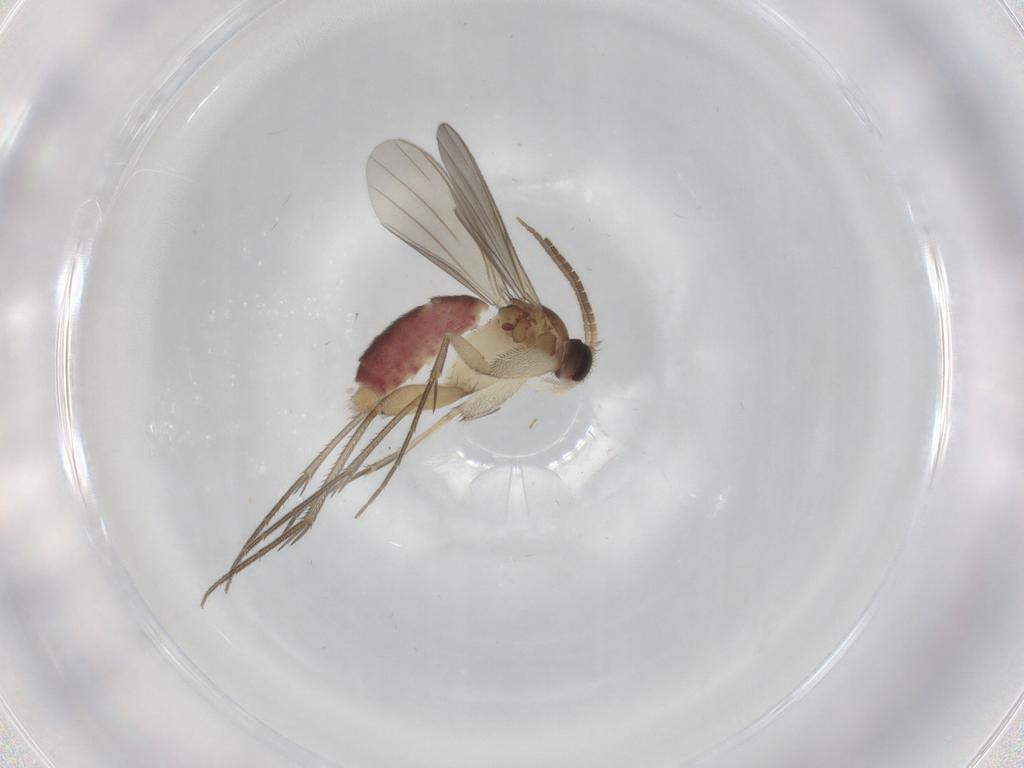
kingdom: Animalia
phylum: Arthropoda
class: Insecta
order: Diptera
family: Mycetophilidae
